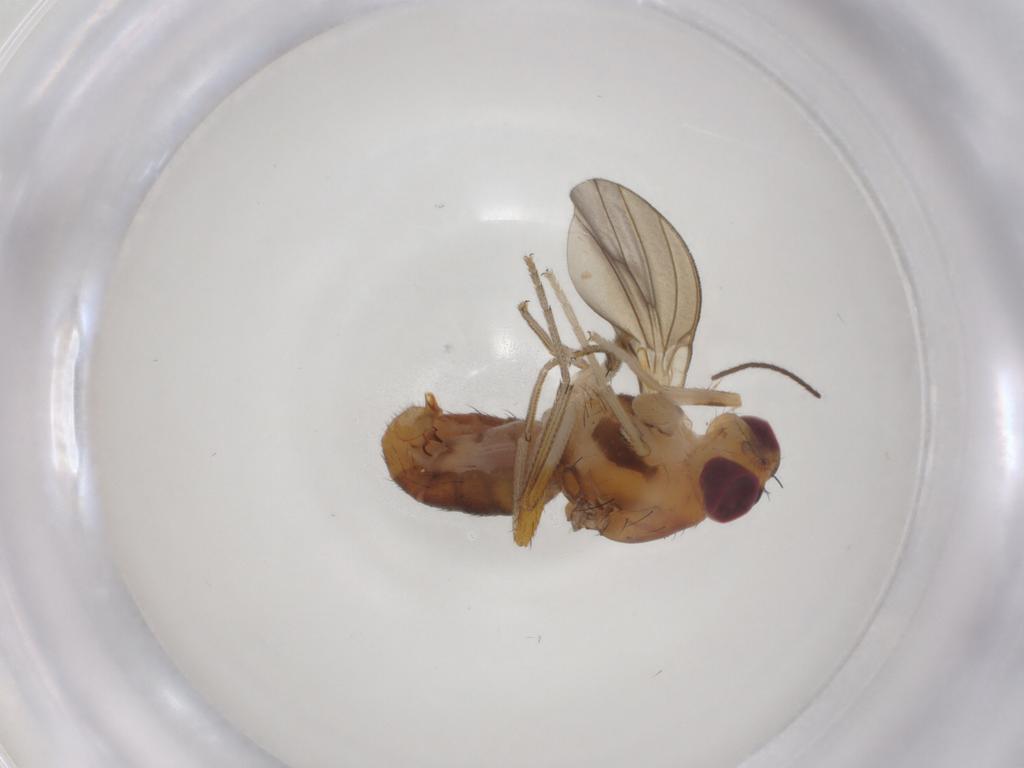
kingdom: Animalia
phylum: Arthropoda
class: Insecta
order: Diptera
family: Lauxaniidae
